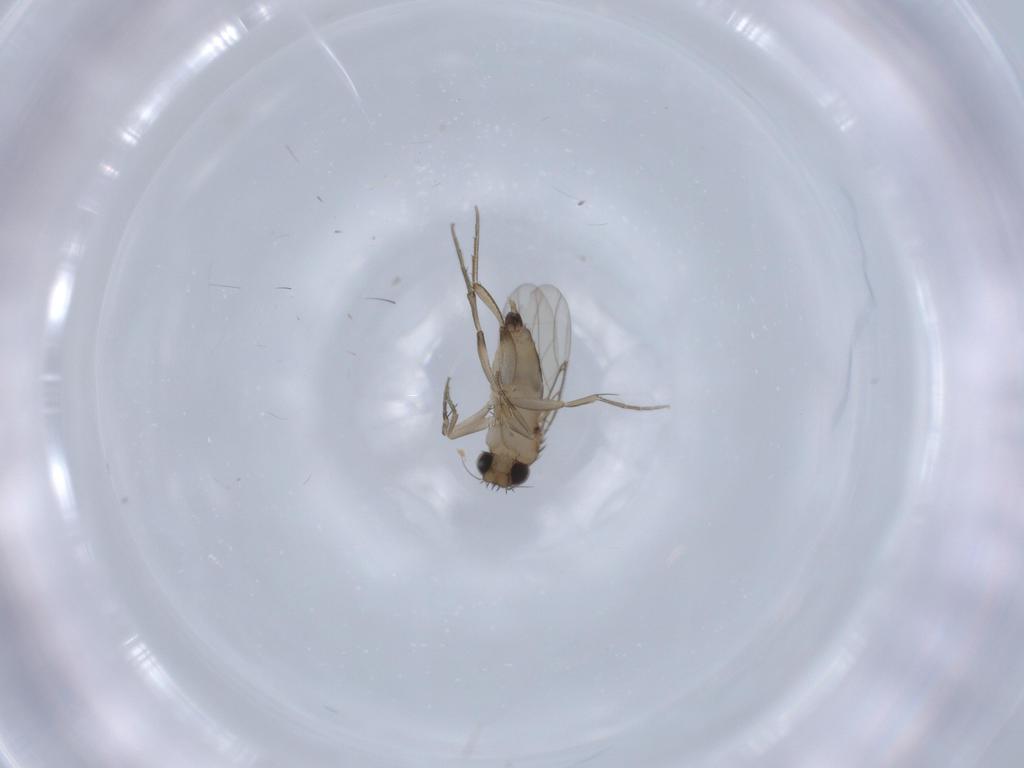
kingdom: Animalia
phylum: Arthropoda
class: Insecta
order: Diptera
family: Phoridae
